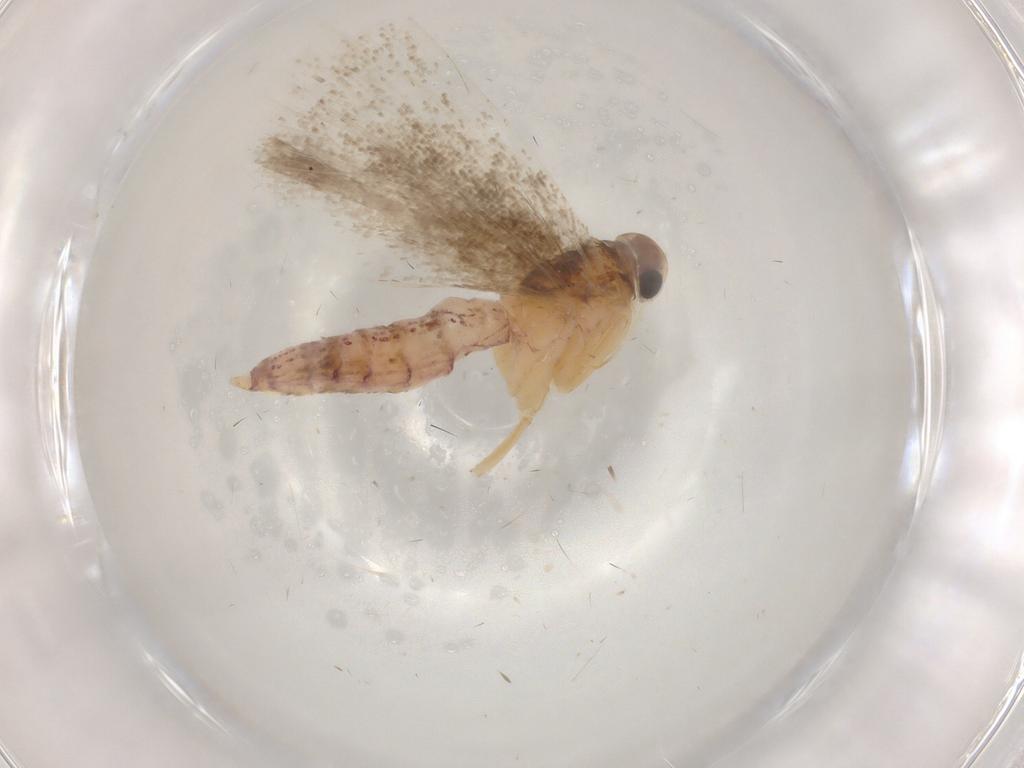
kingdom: Animalia
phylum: Arthropoda
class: Insecta
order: Lepidoptera
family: Gelechiidae
